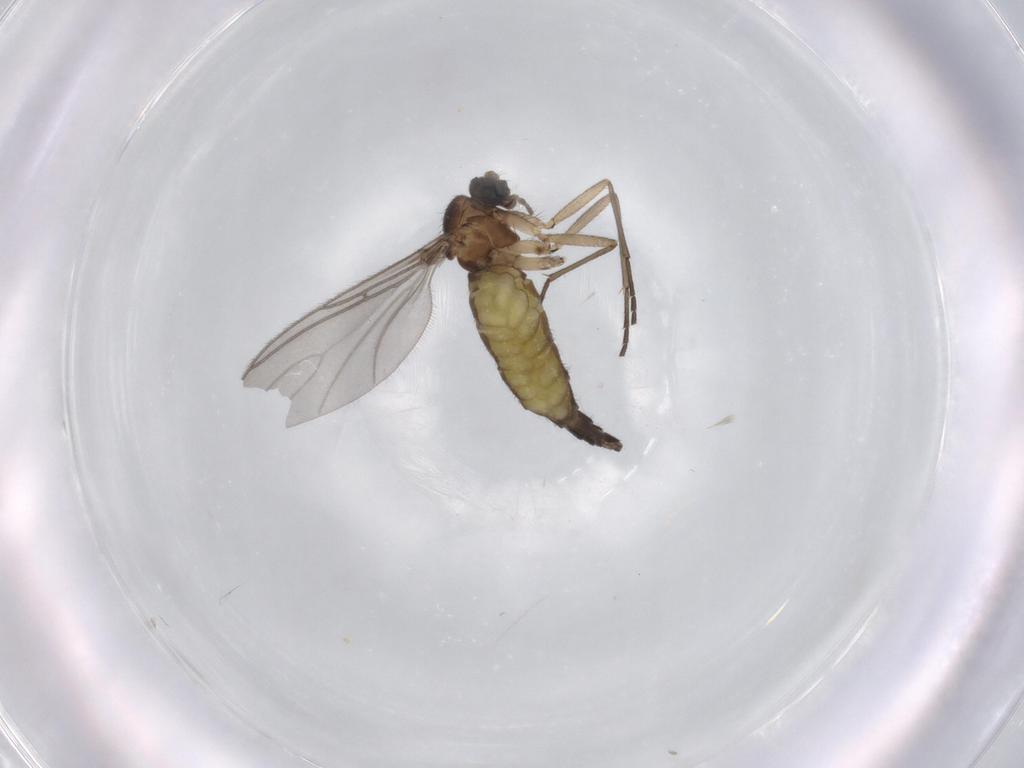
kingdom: Animalia
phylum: Arthropoda
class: Insecta
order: Diptera
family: Sciaridae
